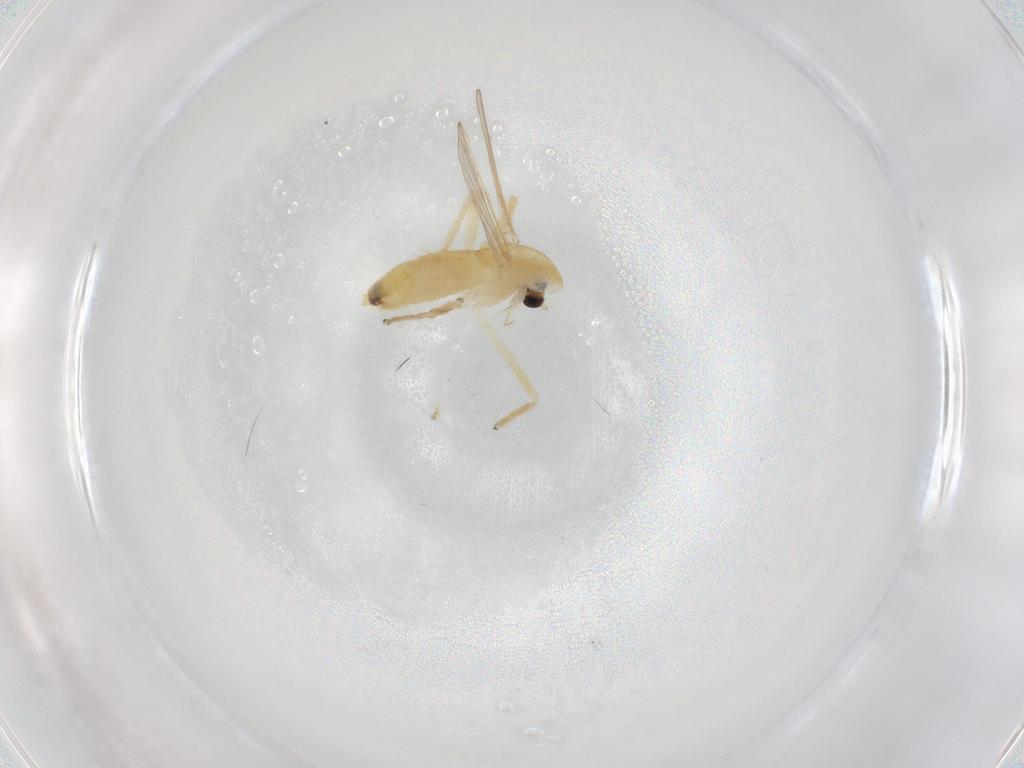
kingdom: Animalia
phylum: Arthropoda
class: Insecta
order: Diptera
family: Chironomidae
